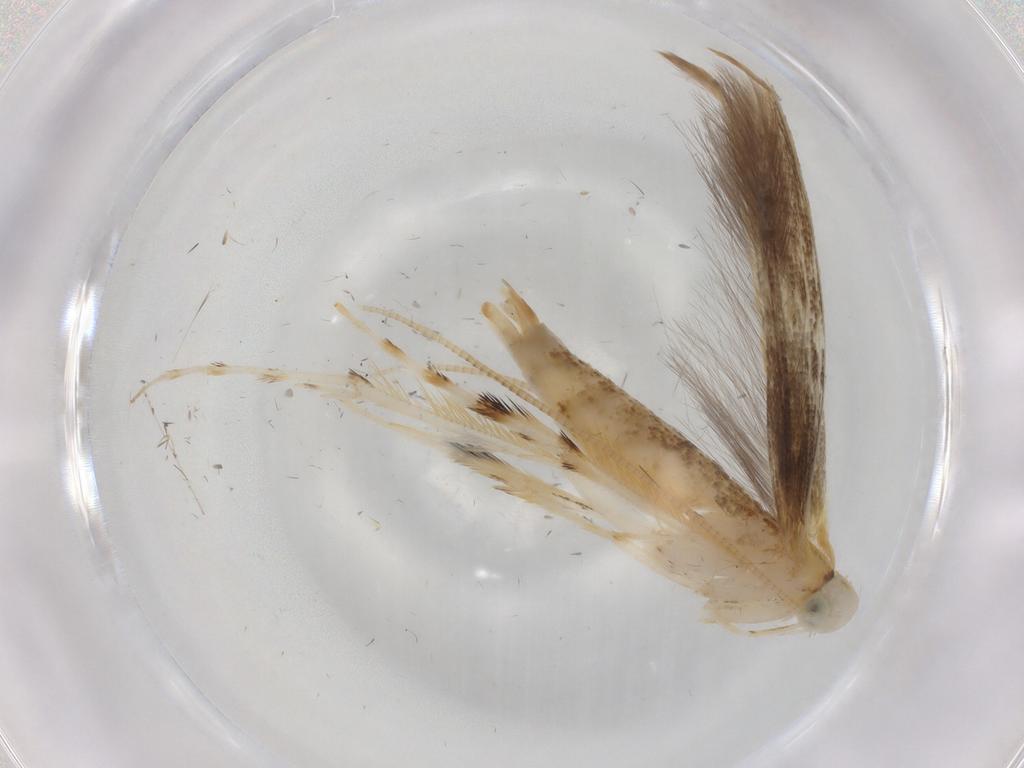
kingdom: Animalia
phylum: Arthropoda
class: Insecta
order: Lepidoptera
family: Gracillariidae
